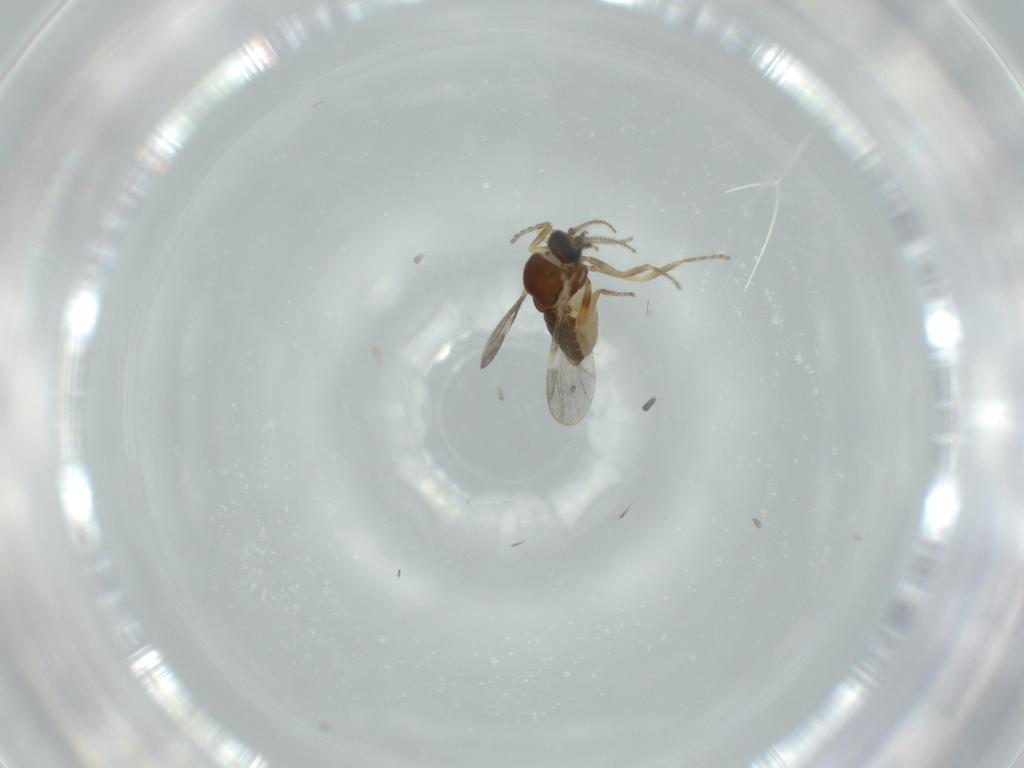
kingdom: Animalia
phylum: Arthropoda
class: Insecta
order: Diptera
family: Ceratopogonidae
